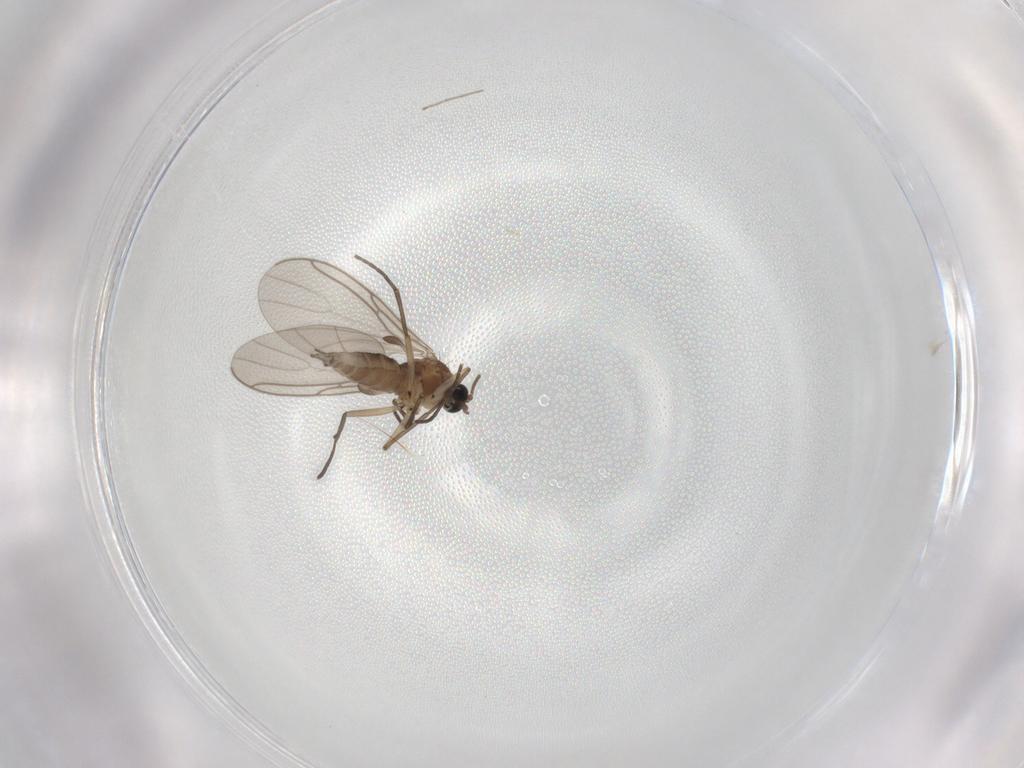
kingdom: Animalia
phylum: Arthropoda
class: Insecta
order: Diptera
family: Sciaridae
